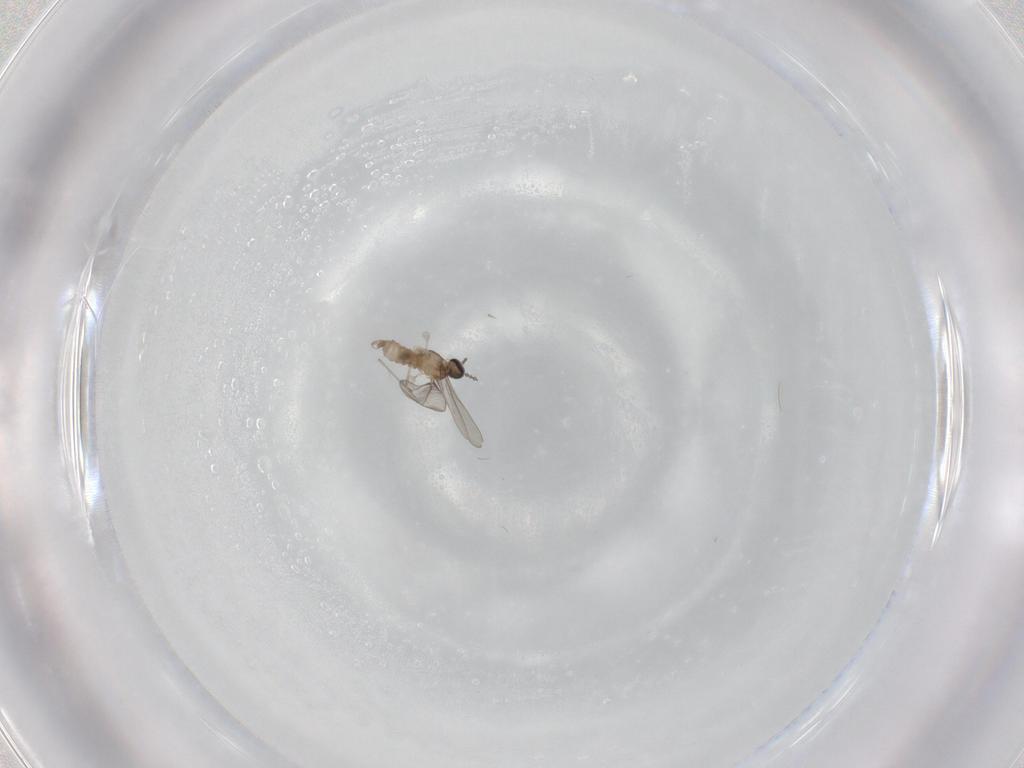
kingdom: Animalia
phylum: Arthropoda
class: Insecta
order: Diptera
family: Cecidomyiidae
